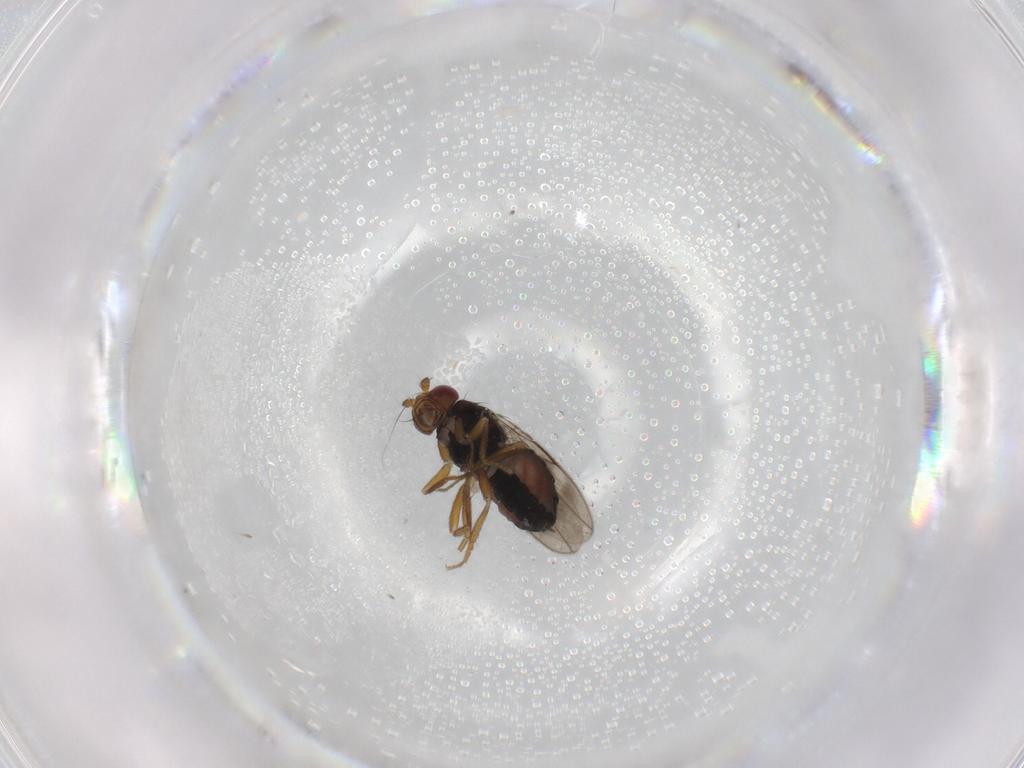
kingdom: Animalia
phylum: Arthropoda
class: Insecta
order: Diptera
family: Sphaeroceridae
